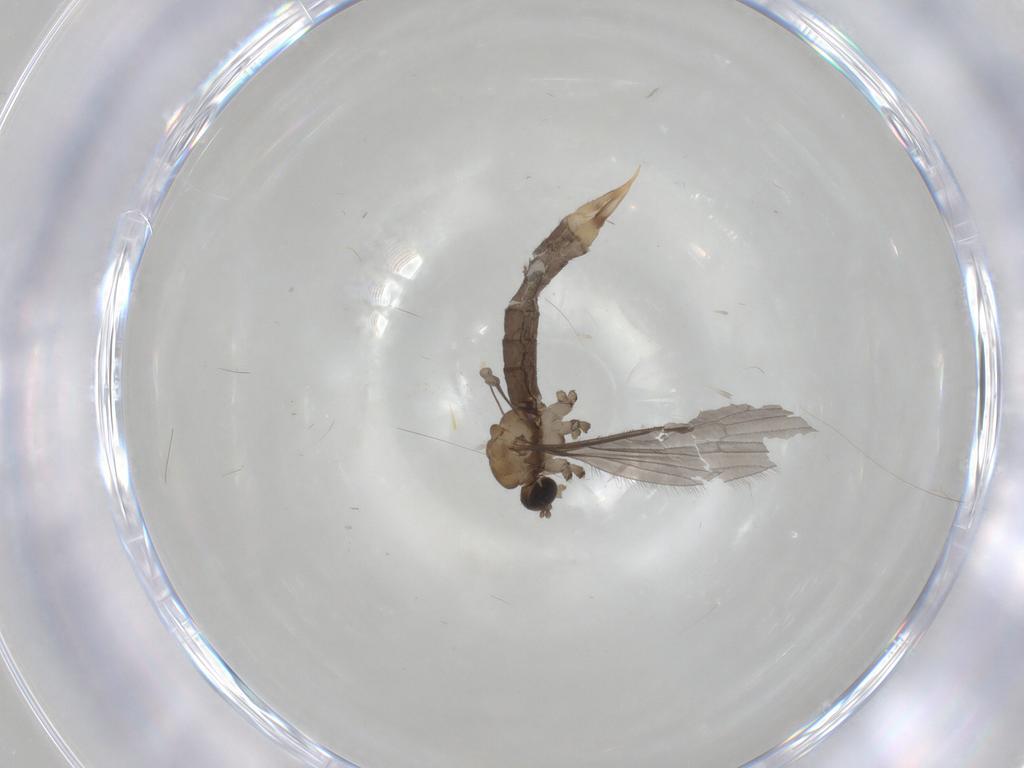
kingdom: Animalia
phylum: Arthropoda
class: Insecta
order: Diptera
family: Limoniidae
